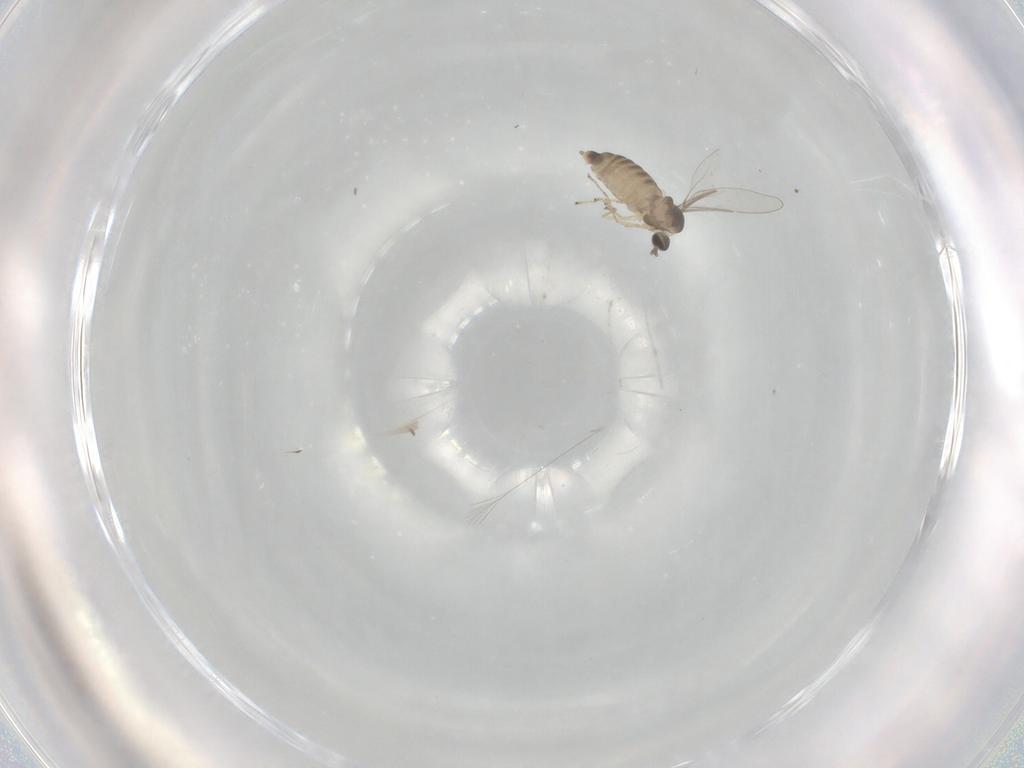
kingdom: Animalia
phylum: Arthropoda
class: Insecta
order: Diptera
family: Cecidomyiidae
